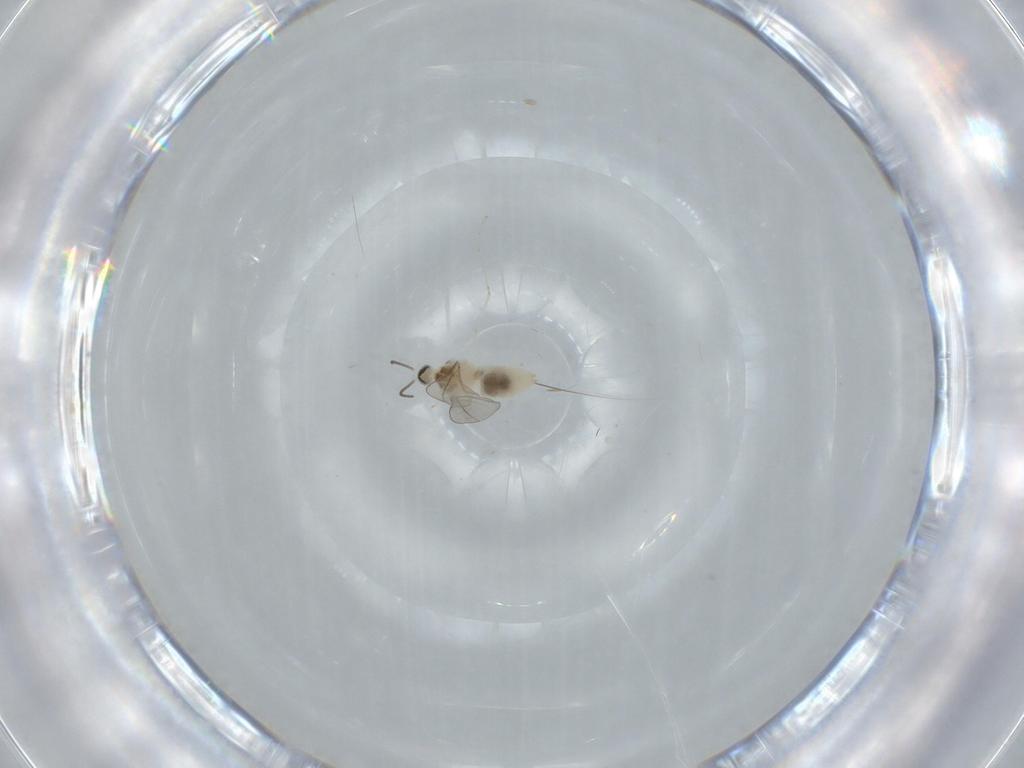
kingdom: Animalia
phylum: Arthropoda
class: Insecta
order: Diptera
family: Cecidomyiidae
